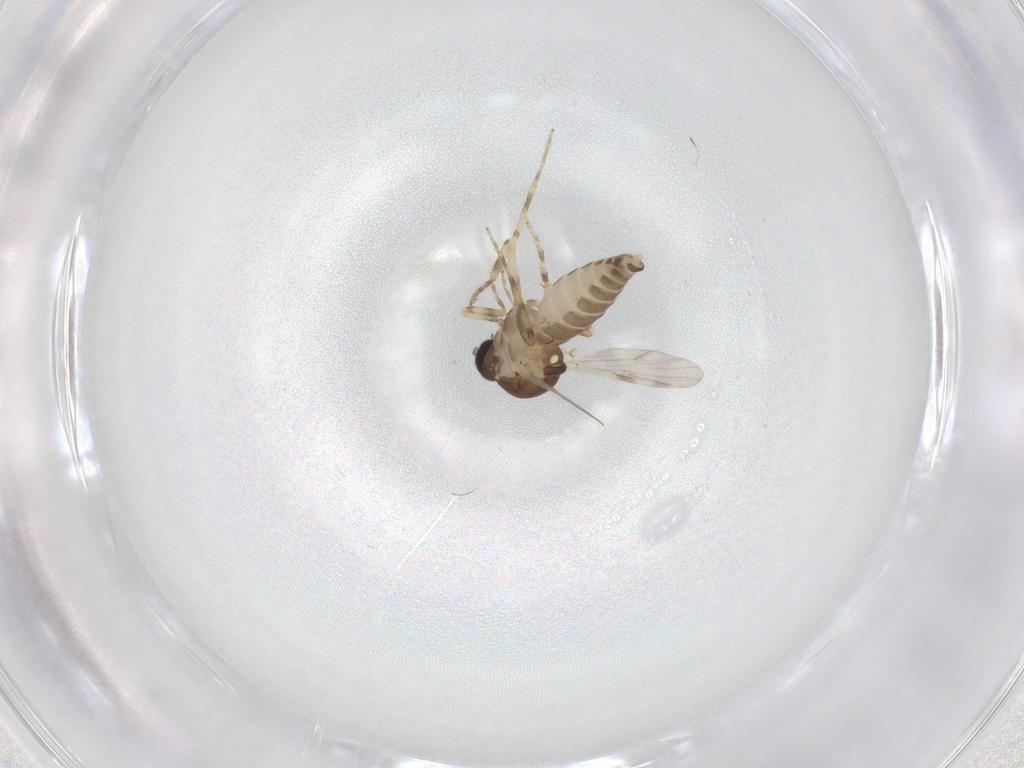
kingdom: Animalia
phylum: Arthropoda
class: Insecta
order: Diptera
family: Ceratopogonidae
